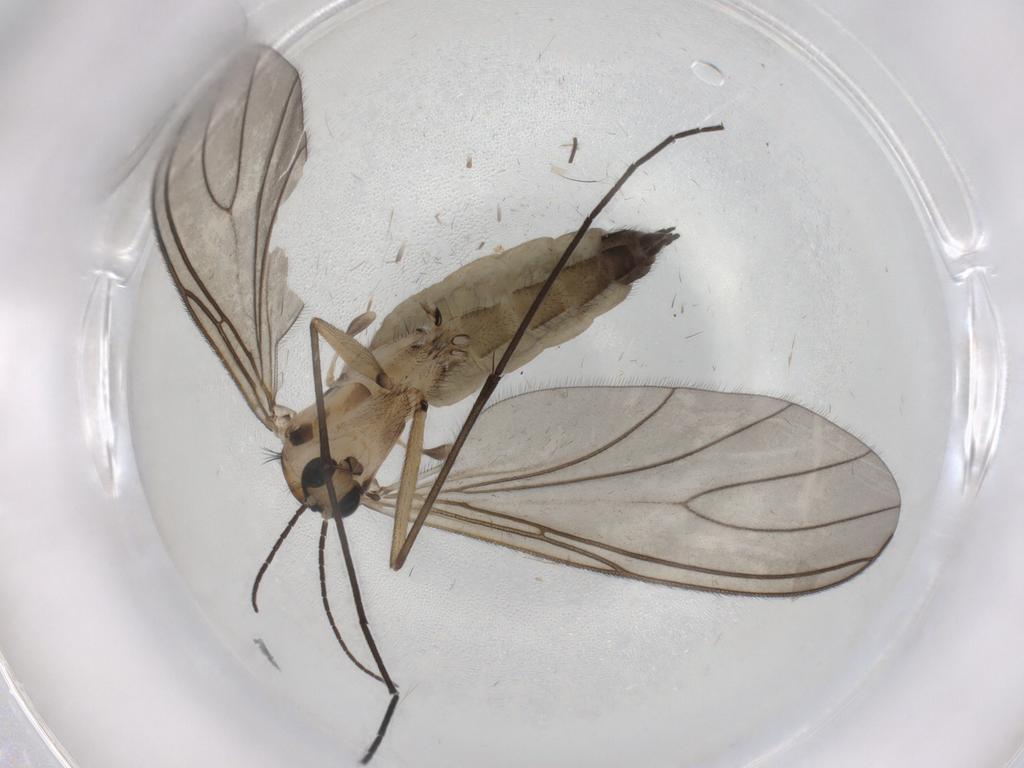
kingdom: Animalia
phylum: Arthropoda
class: Insecta
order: Diptera
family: Sciaridae
